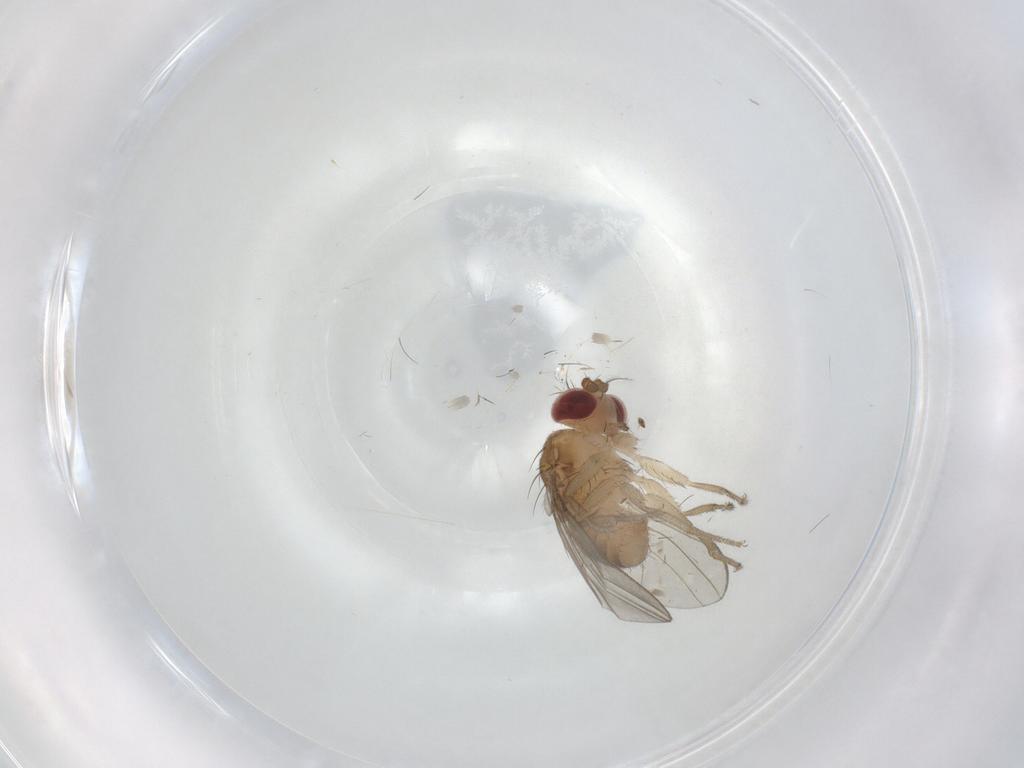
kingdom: Animalia
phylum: Arthropoda
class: Insecta
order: Diptera
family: Drosophilidae
